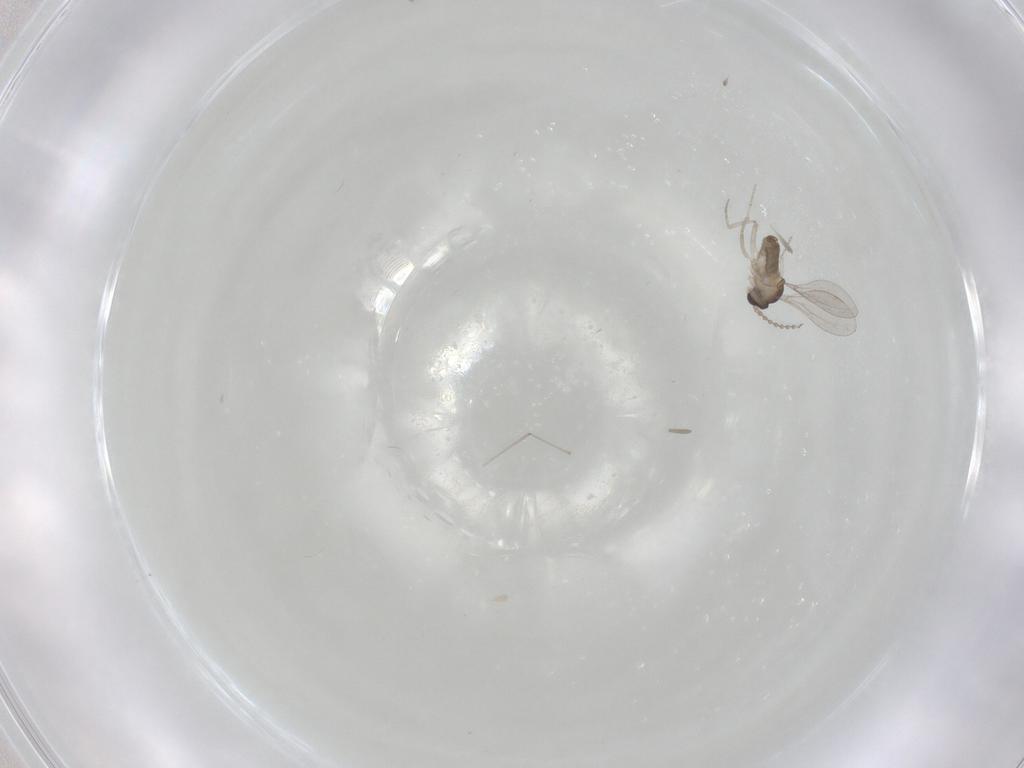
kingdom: Animalia
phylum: Arthropoda
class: Insecta
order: Diptera
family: Cecidomyiidae
